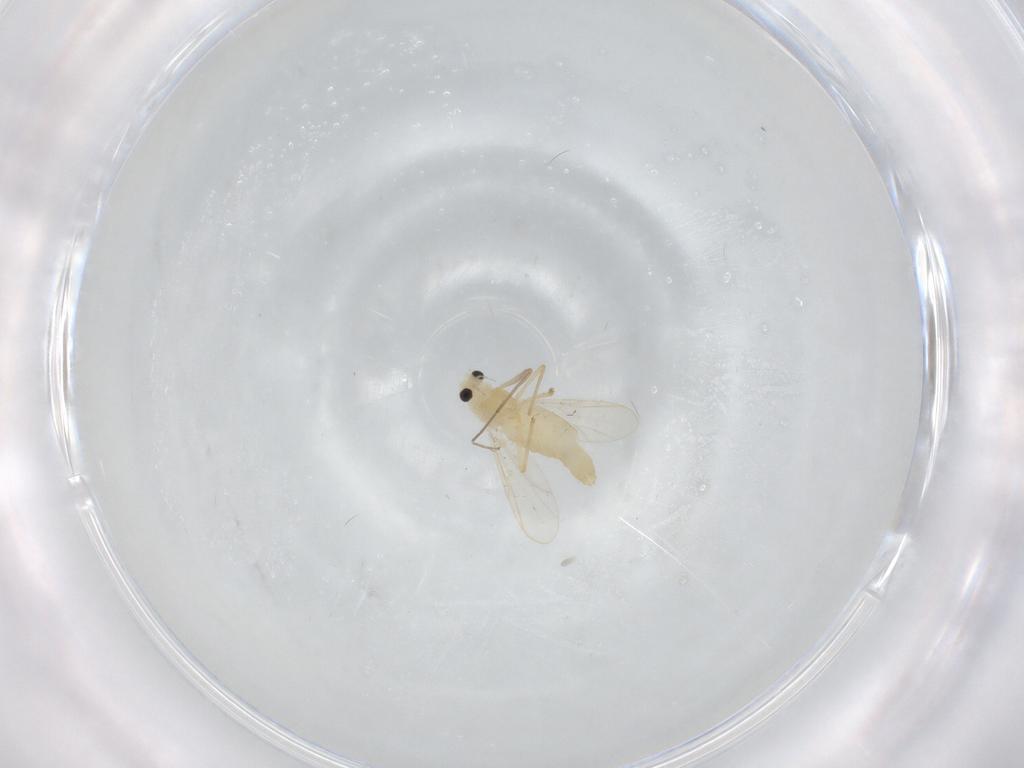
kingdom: Animalia
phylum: Arthropoda
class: Insecta
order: Diptera
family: Chironomidae
